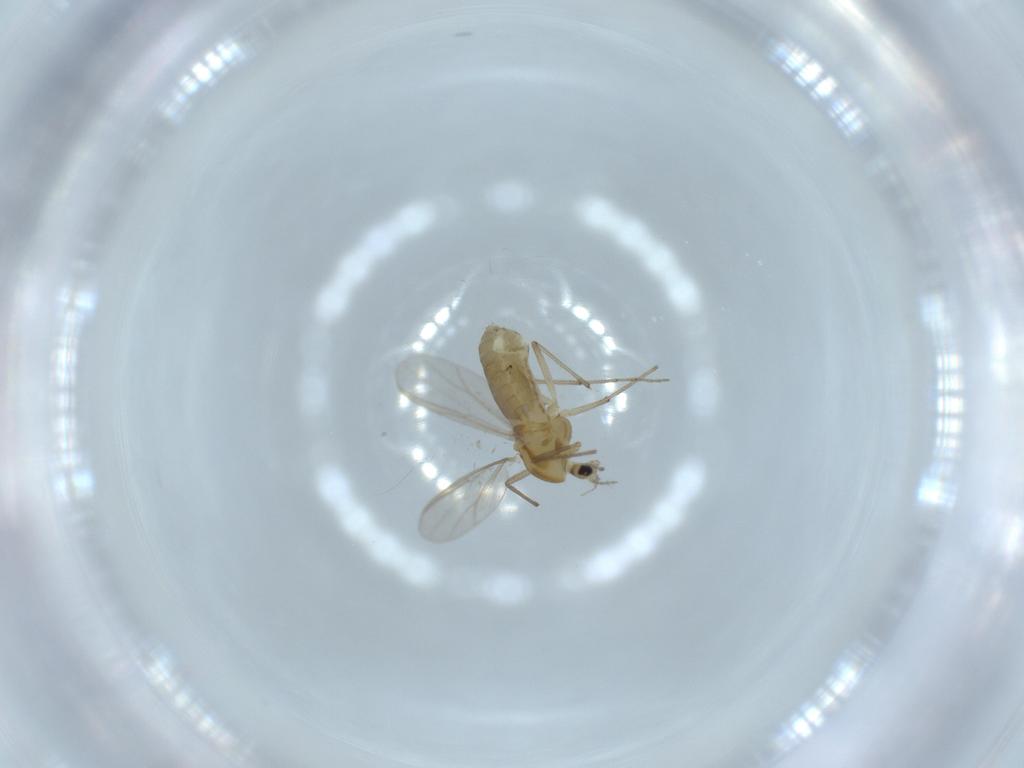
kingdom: Animalia
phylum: Arthropoda
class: Insecta
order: Diptera
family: Chironomidae
